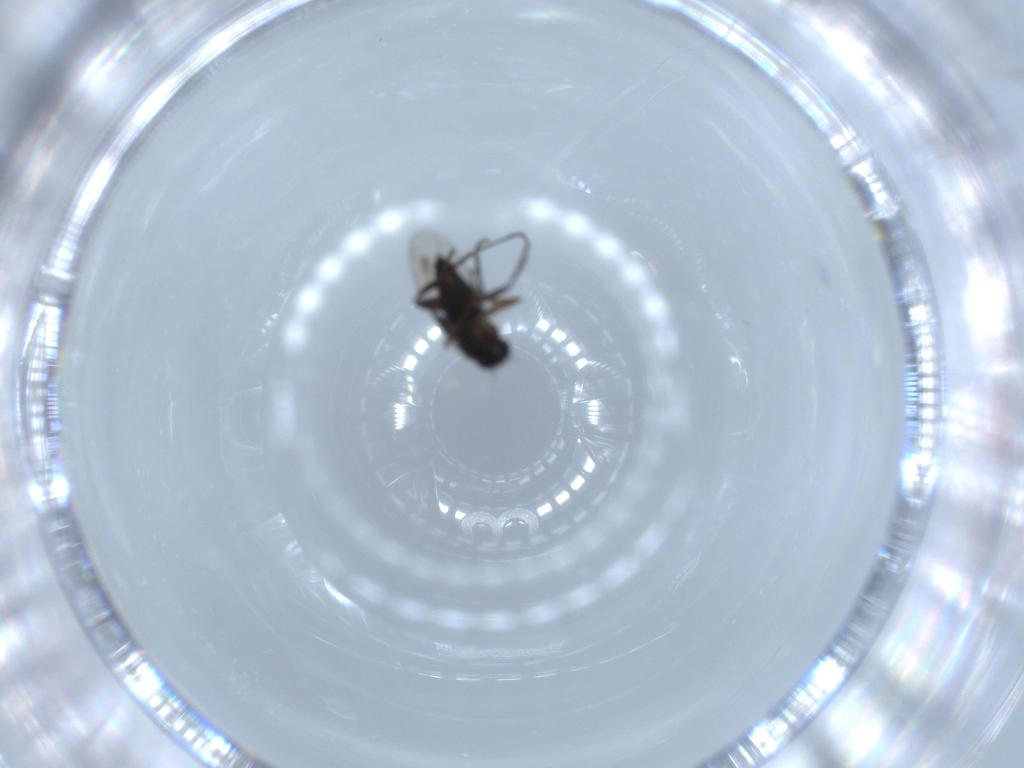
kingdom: Animalia
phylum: Arthropoda
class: Insecta
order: Diptera
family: Phoridae
